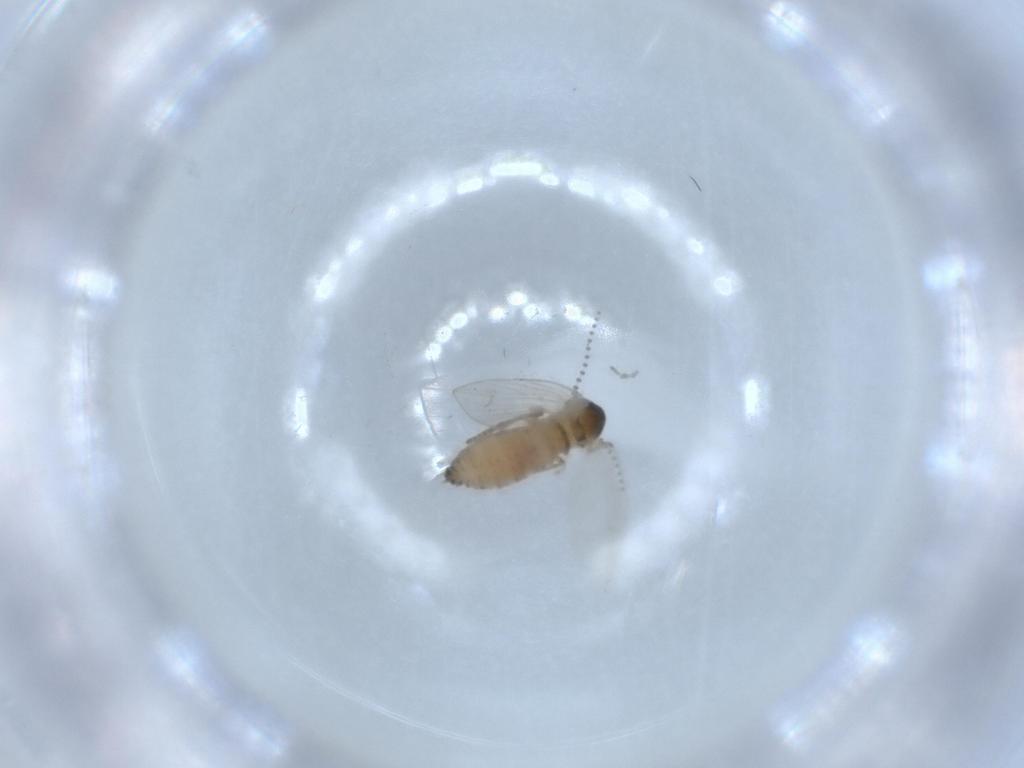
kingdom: Animalia
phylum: Arthropoda
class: Insecta
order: Diptera
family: Psychodidae
